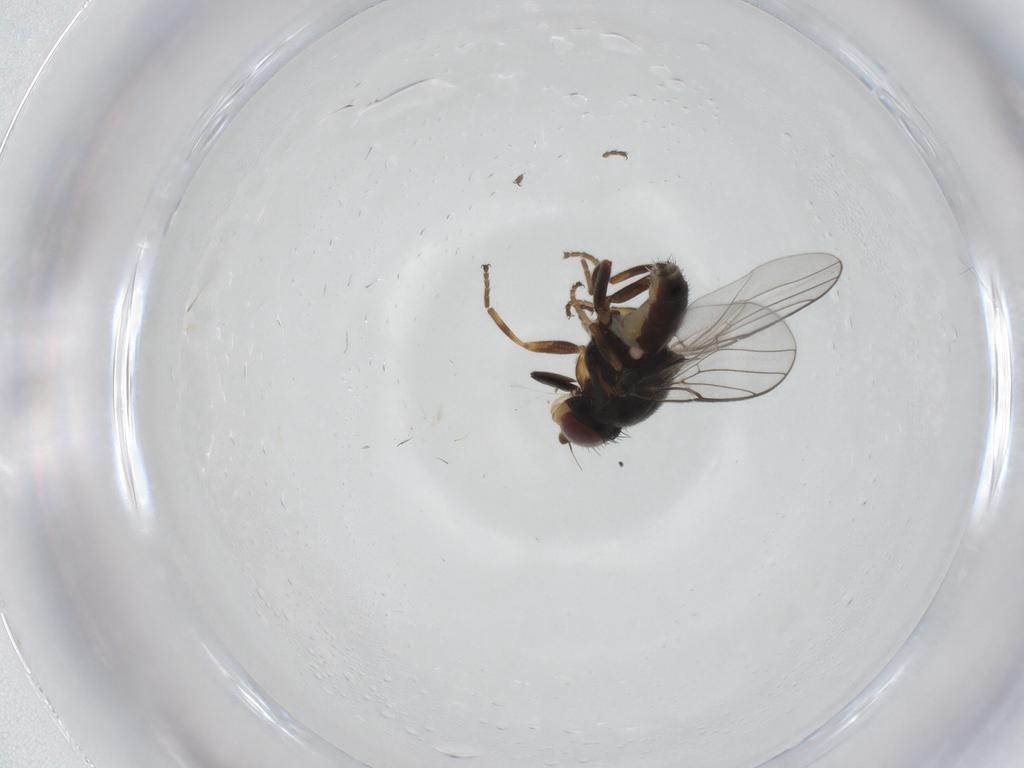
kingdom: Animalia
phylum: Arthropoda
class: Insecta
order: Diptera
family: Chloropidae
